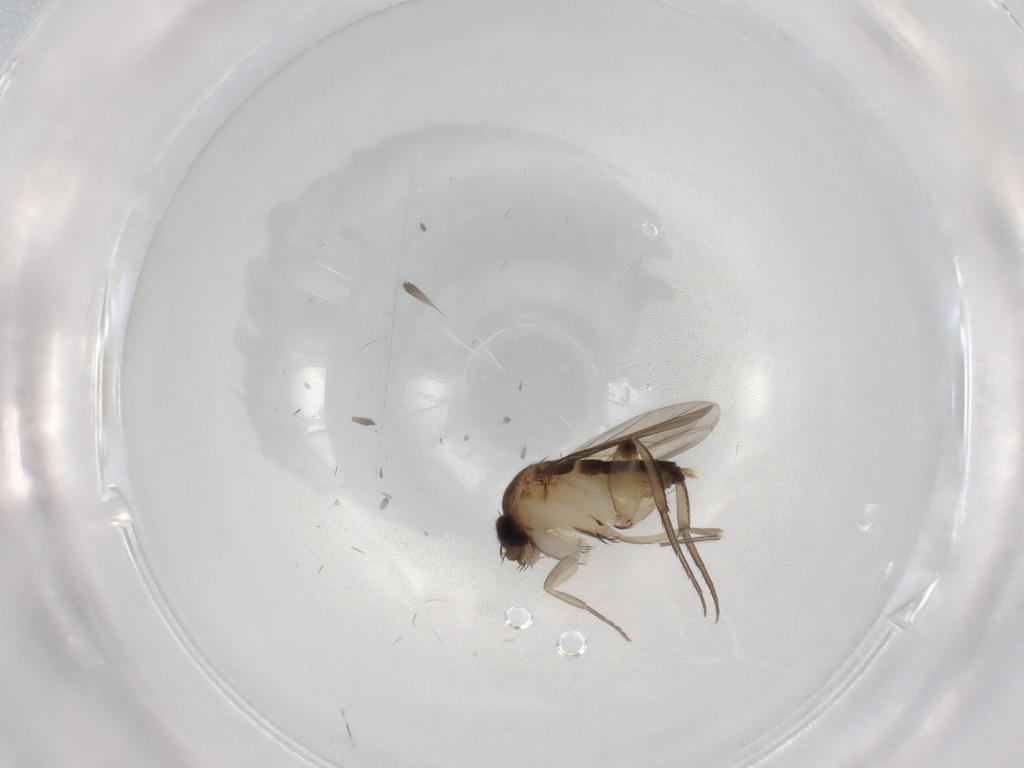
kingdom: Animalia
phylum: Arthropoda
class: Insecta
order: Diptera
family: Phoridae
